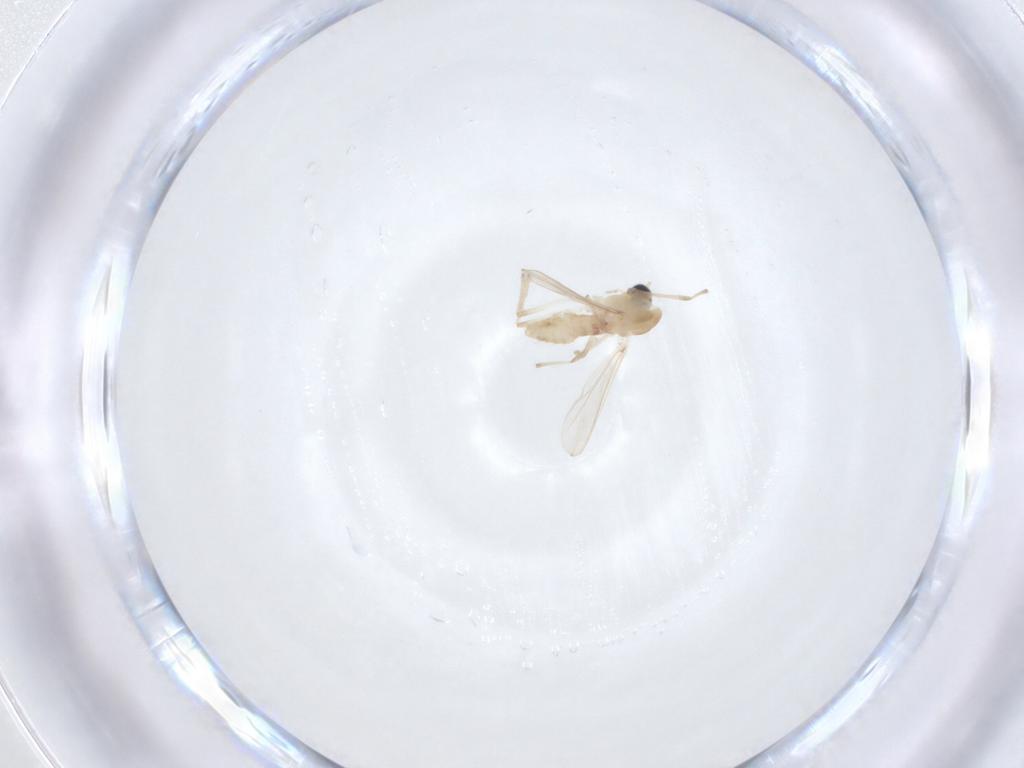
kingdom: Animalia
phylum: Arthropoda
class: Insecta
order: Diptera
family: Chironomidae
